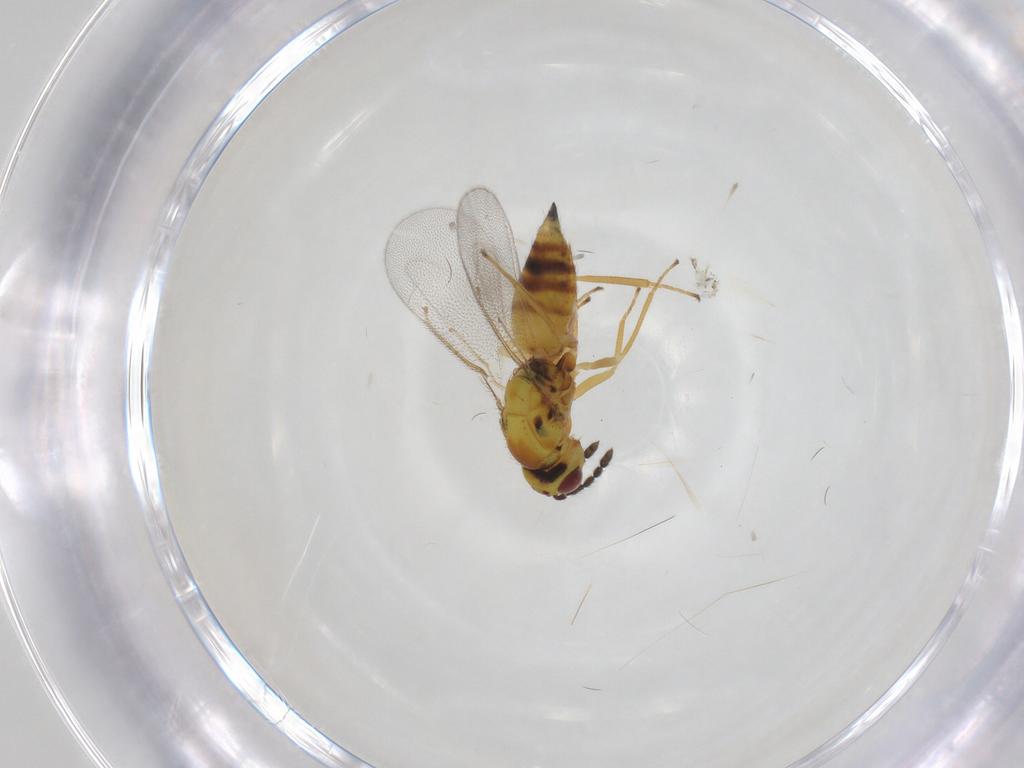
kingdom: Animalia
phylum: Arthropoda
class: Insecta
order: Hymenoptera
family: Eulophidae
